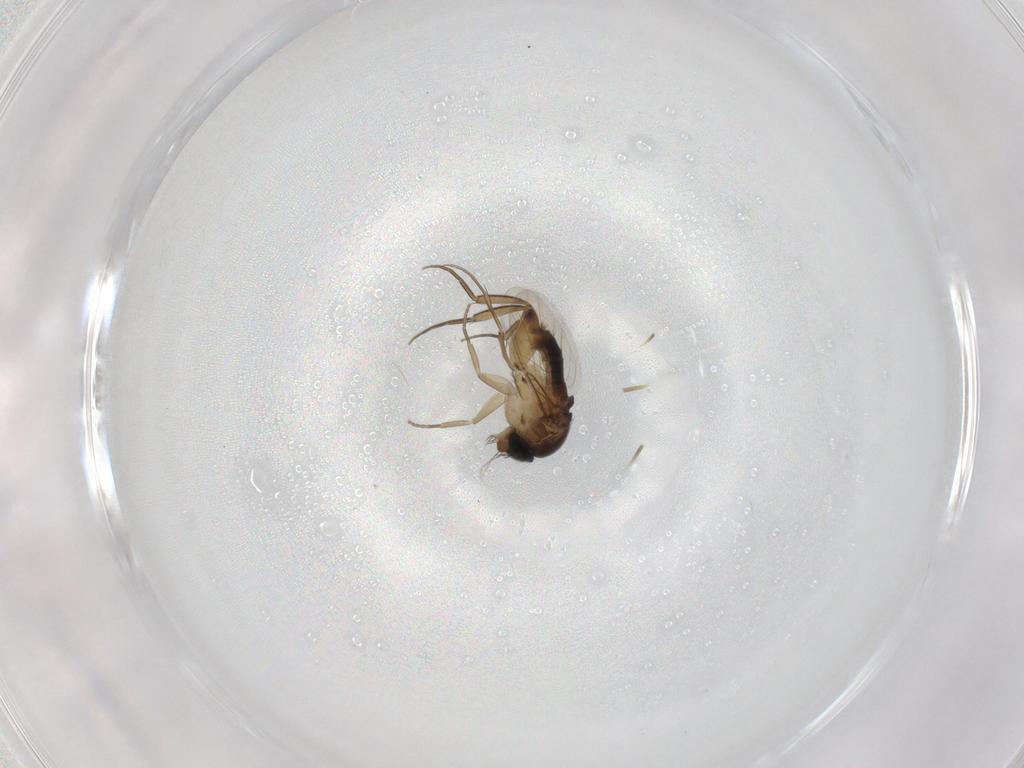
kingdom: Animalia
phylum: Arthropoda
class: Insecta
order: Diptera
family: Phoridae
